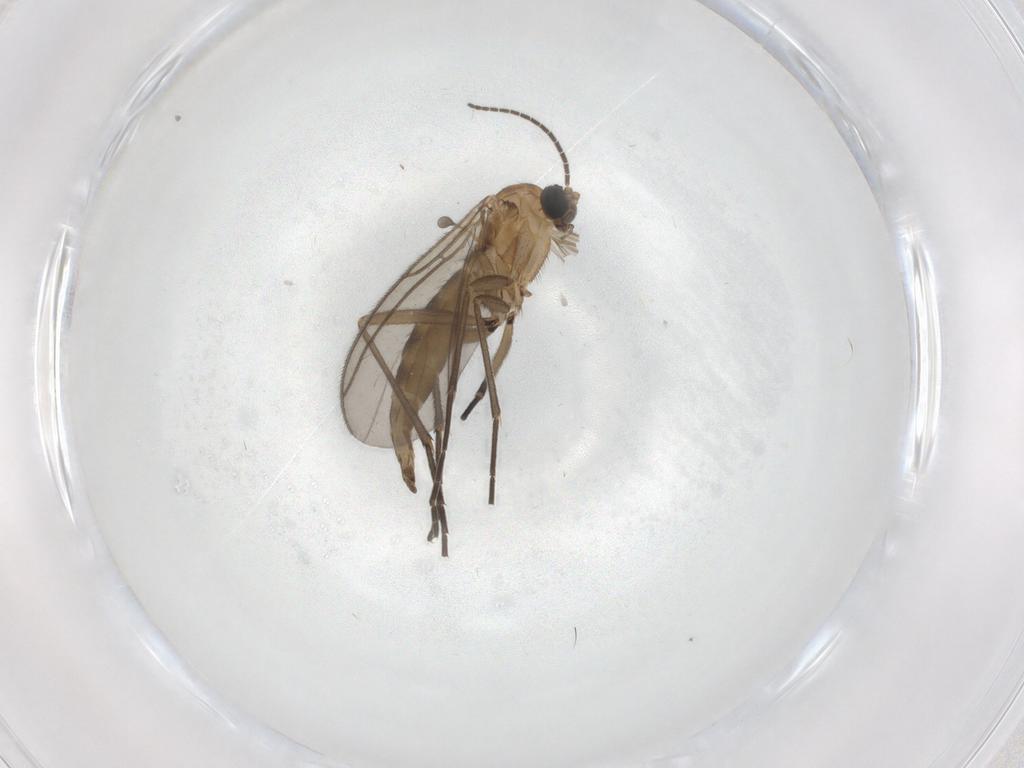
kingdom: Animalia
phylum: Arthropoda
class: Insecta
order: Diptera
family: Sciaridae
